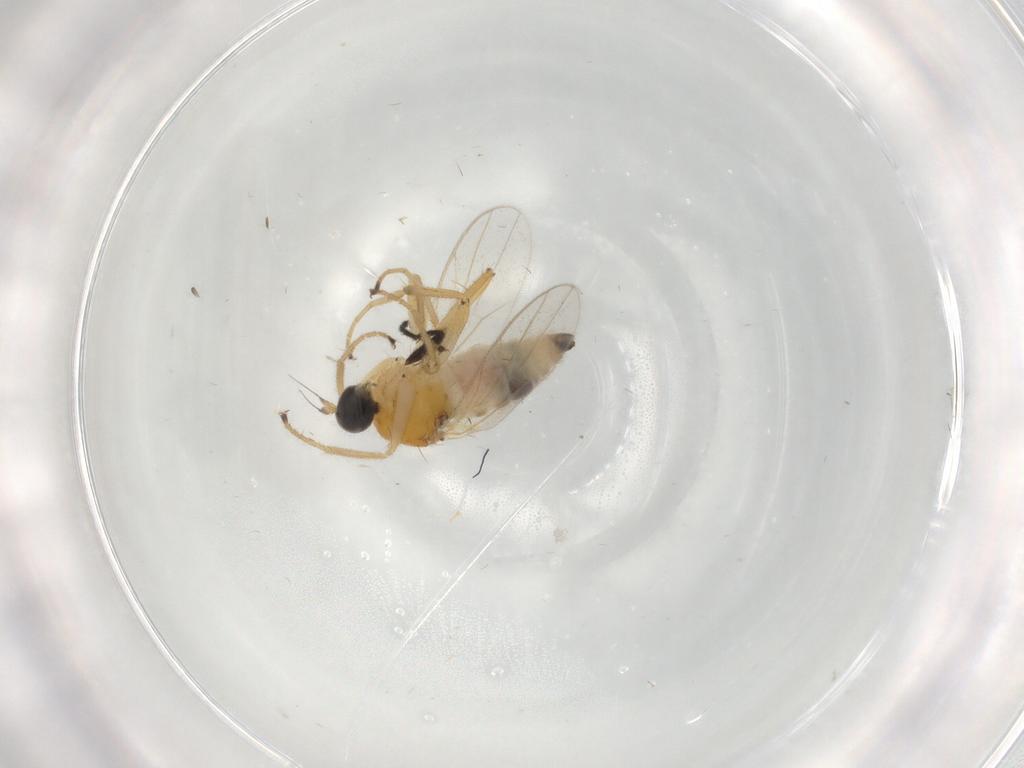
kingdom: Animalia
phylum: Arthropoda
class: Insecta
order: Diptera
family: Hybotidae
